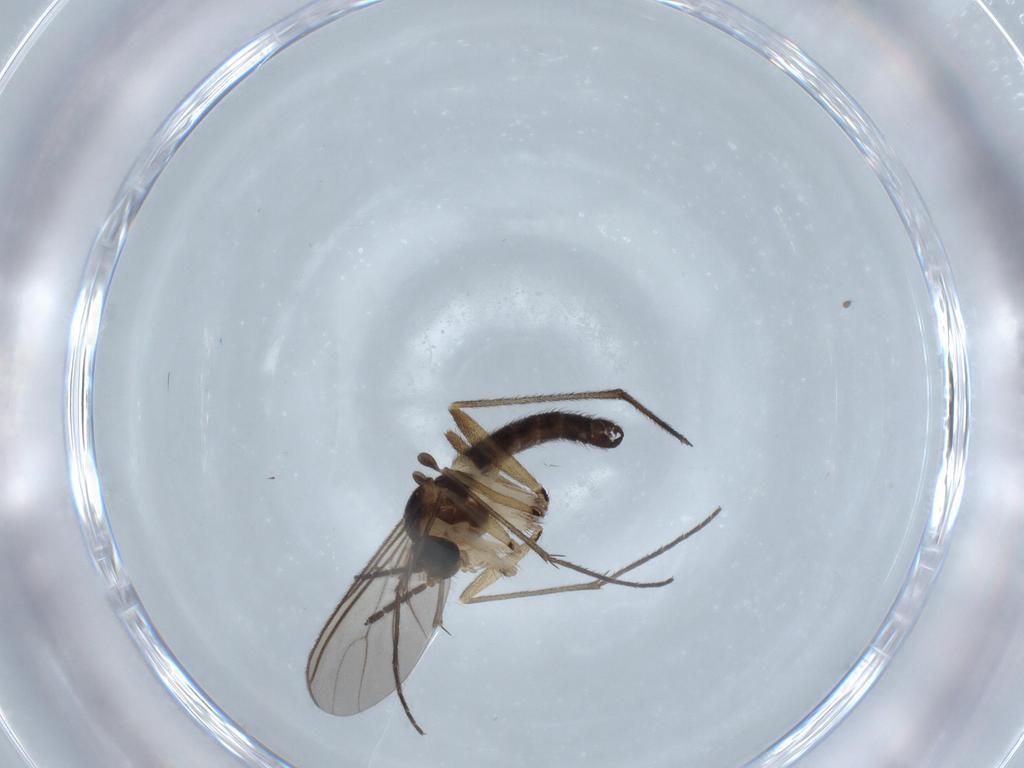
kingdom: Animalia
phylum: Arthropoda
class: Insecta
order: Diptera
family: Sciaridae
